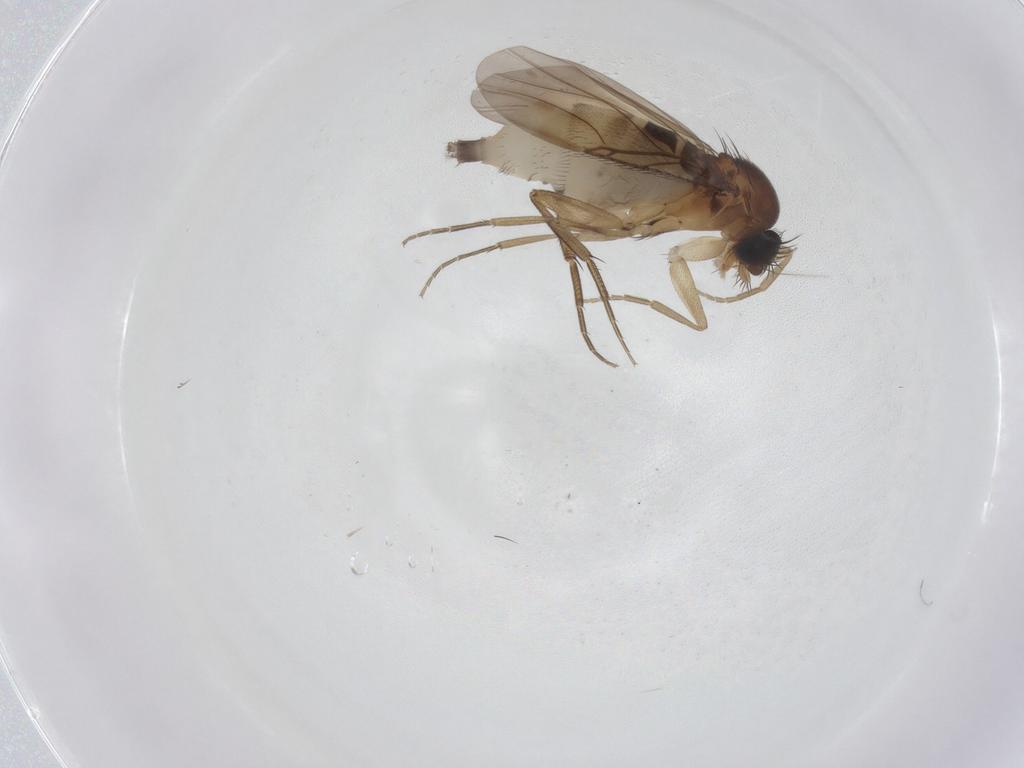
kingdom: Animalia
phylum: Arthropoda
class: Insecta
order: Diptera
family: Phoridae
